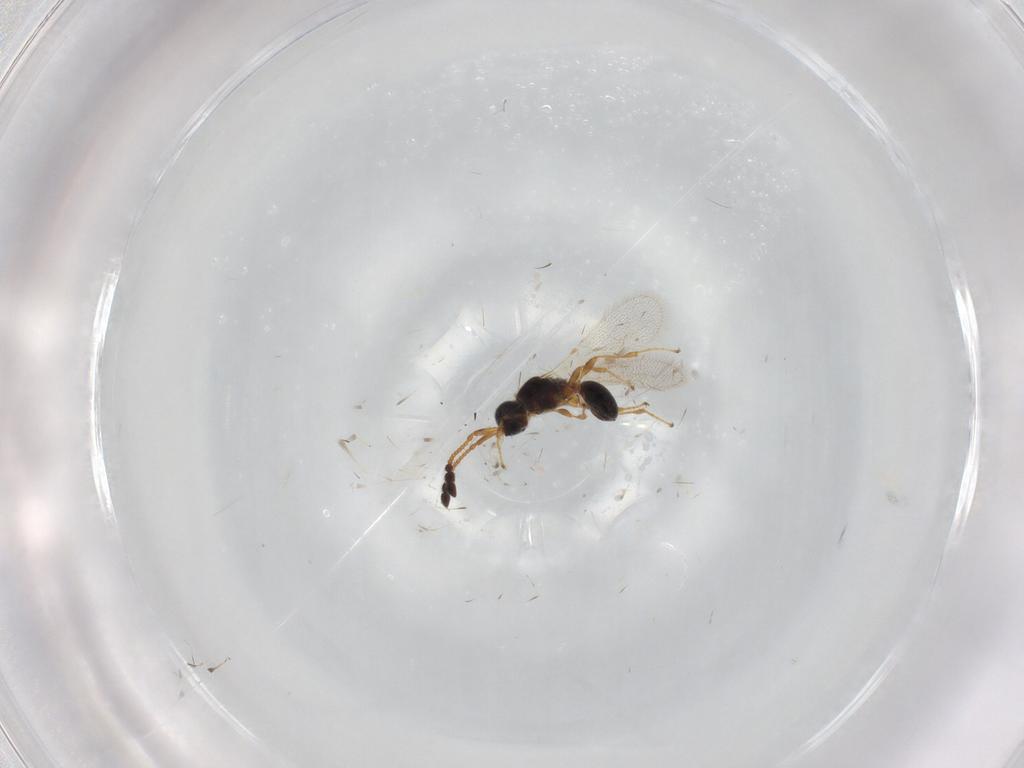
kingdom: Animalia
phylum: Arthropoda
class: Insecta
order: Hymenoptera
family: Diapriidae
